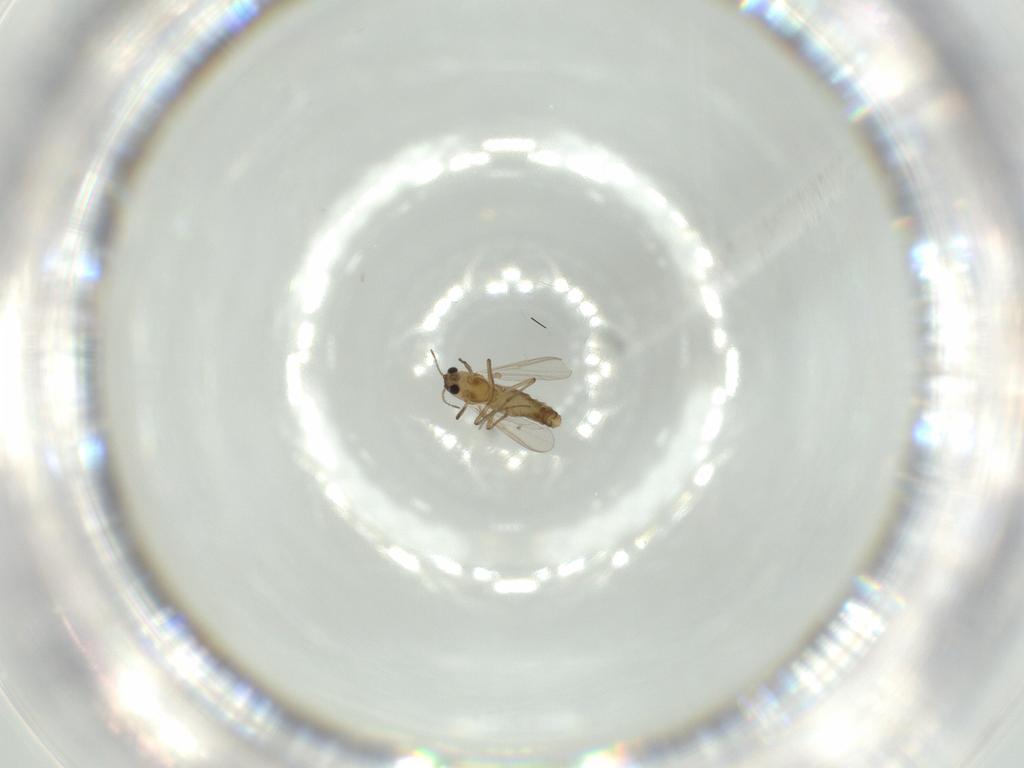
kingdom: Animalia
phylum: Arthropoda
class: Insecta
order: Diptera
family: Chironomidae
